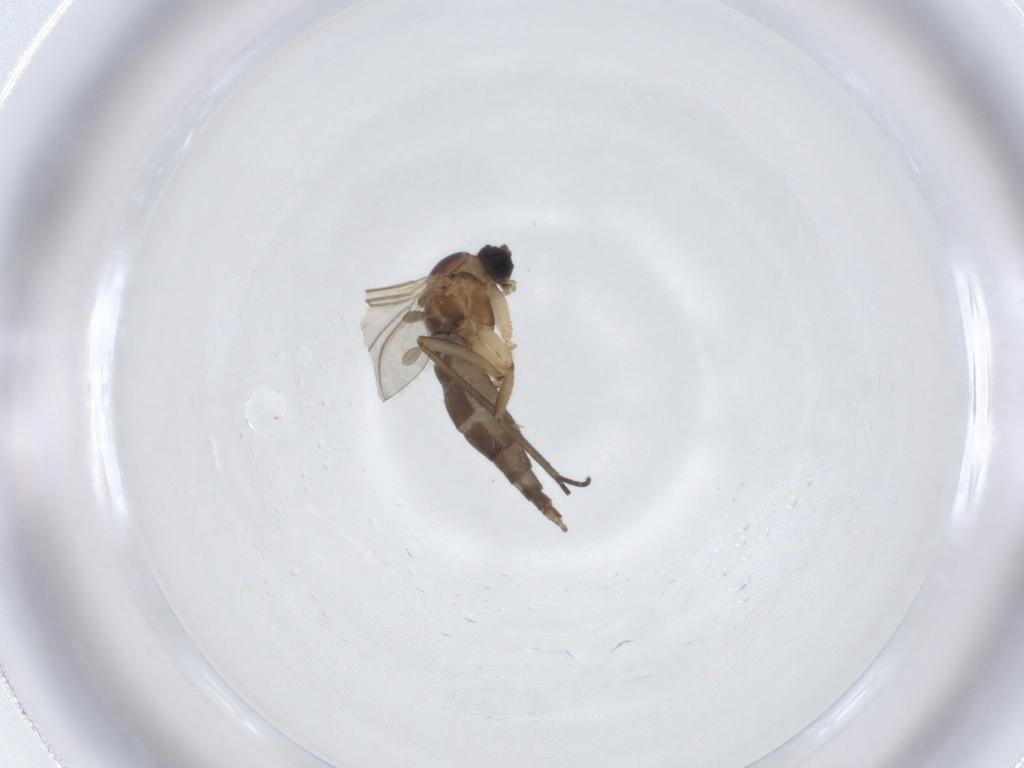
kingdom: Animalia
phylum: Arthropoda
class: Insecta
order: Diptera
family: Sciaridae
